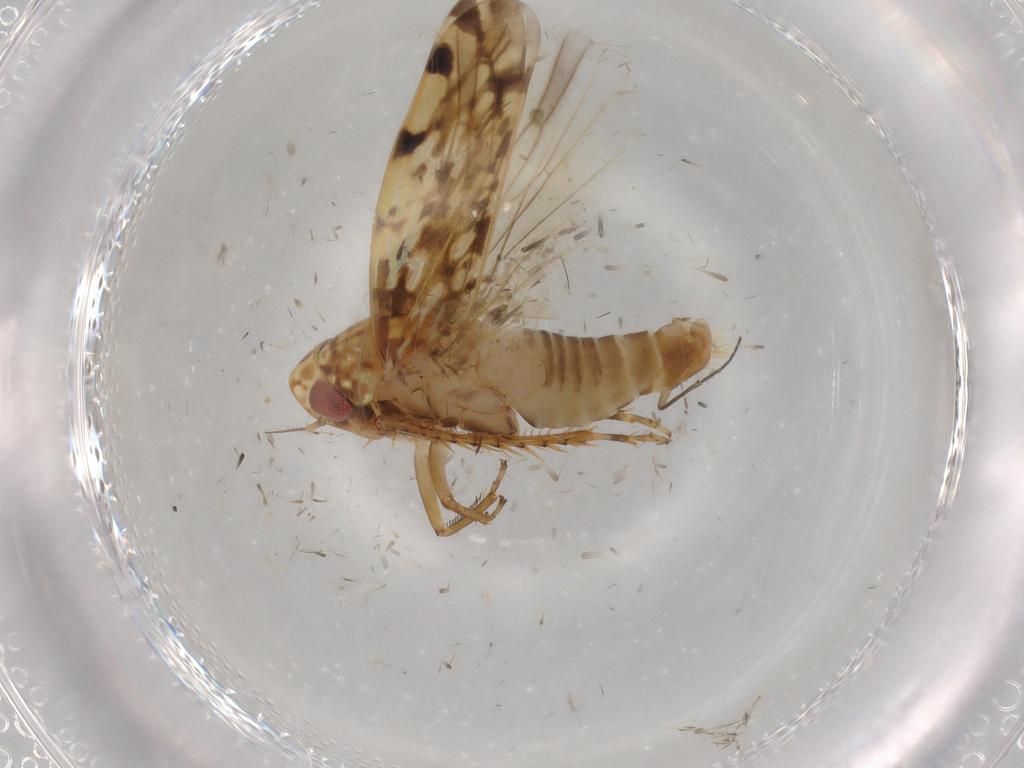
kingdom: Animalia
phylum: Arthropoda
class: Insecta
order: Hemiptera
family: Cicadellidae
